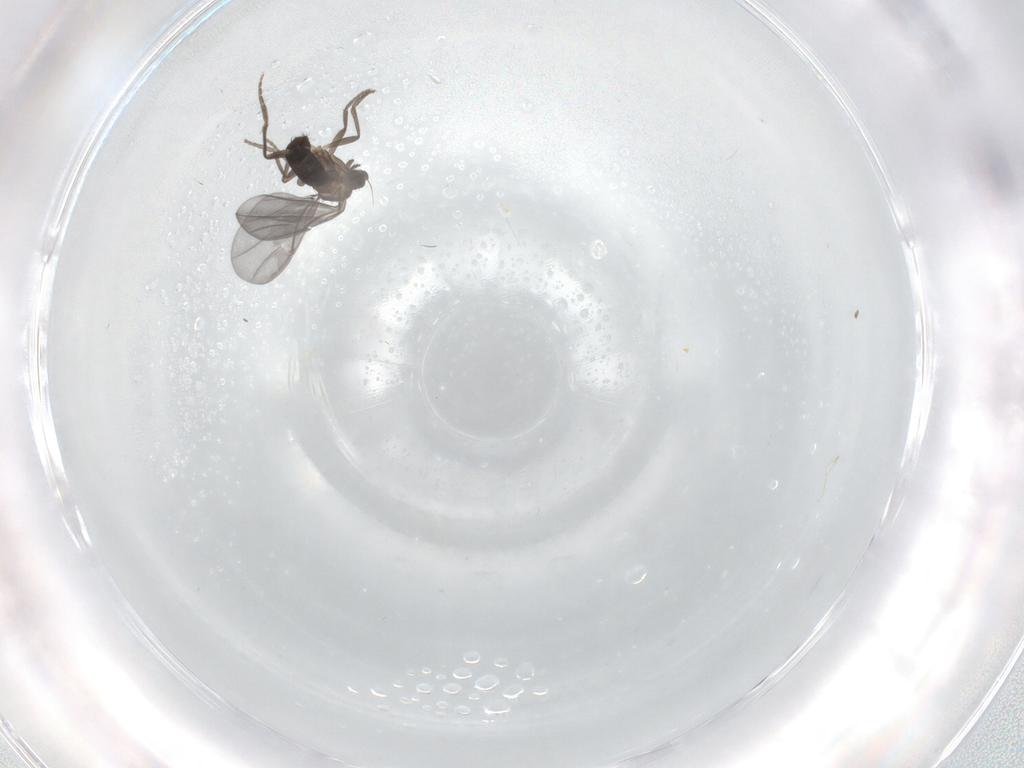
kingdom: Animalia
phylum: Arthropoda
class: Insecta
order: Diptera
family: Phoridae
